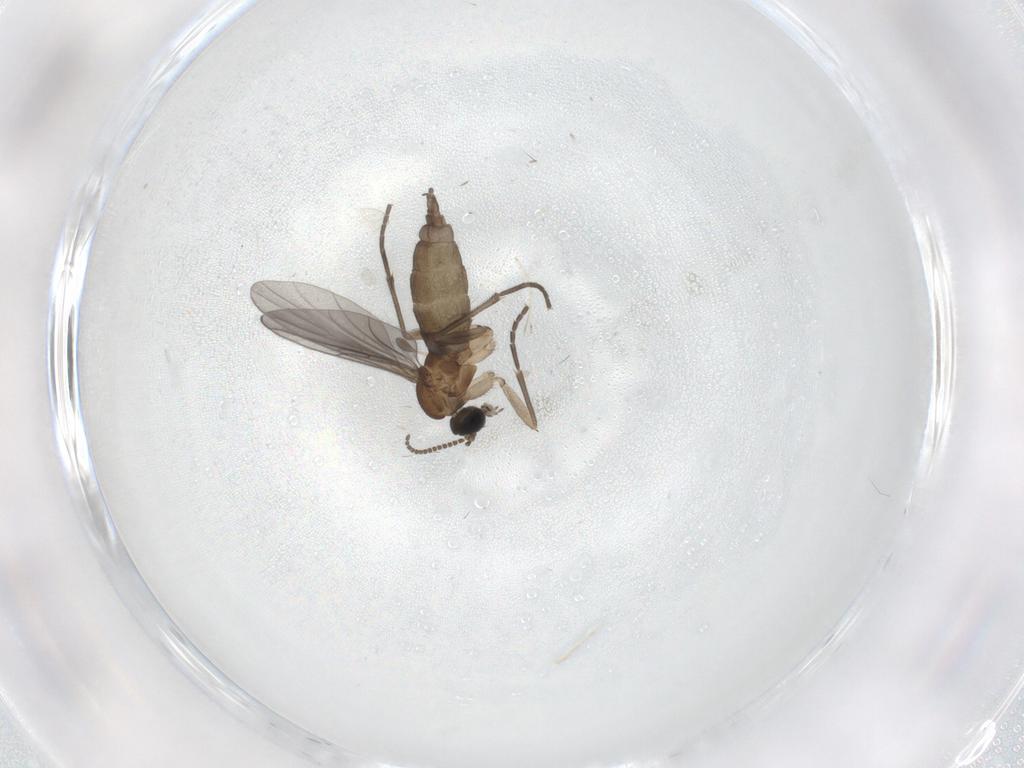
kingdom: Animalia
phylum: Arthropoda
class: Insecta
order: Diptera
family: Sciaridae
